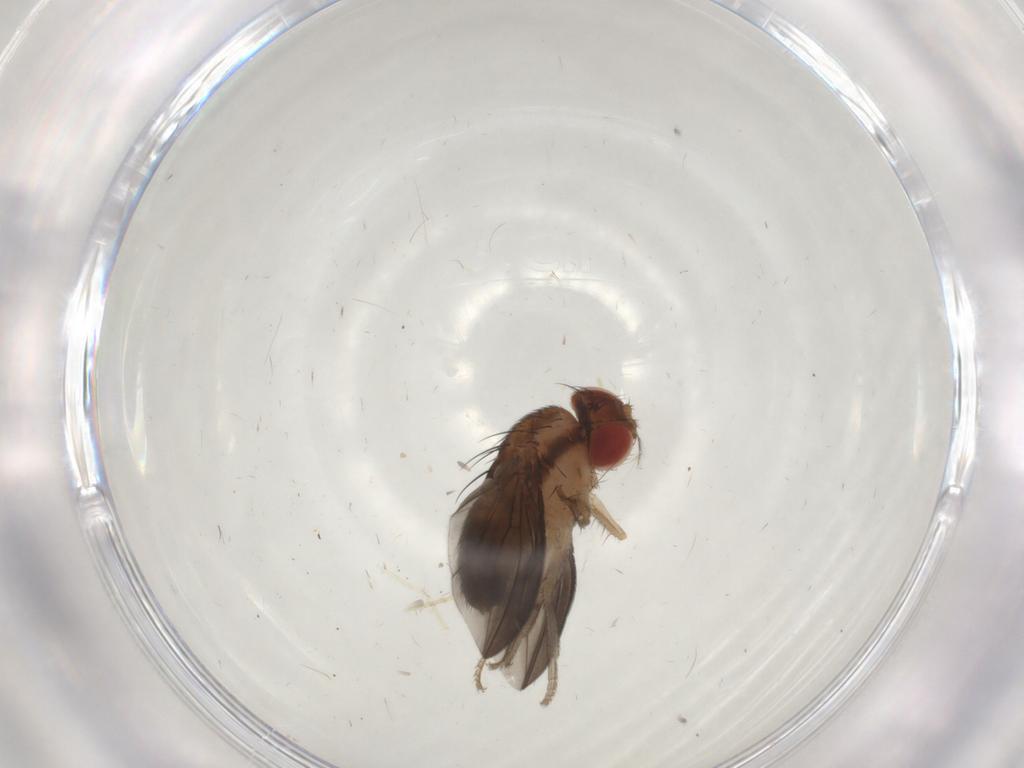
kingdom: Animalia
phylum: Arthropoda
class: Insecta
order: Diptera
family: Drosophilidae
